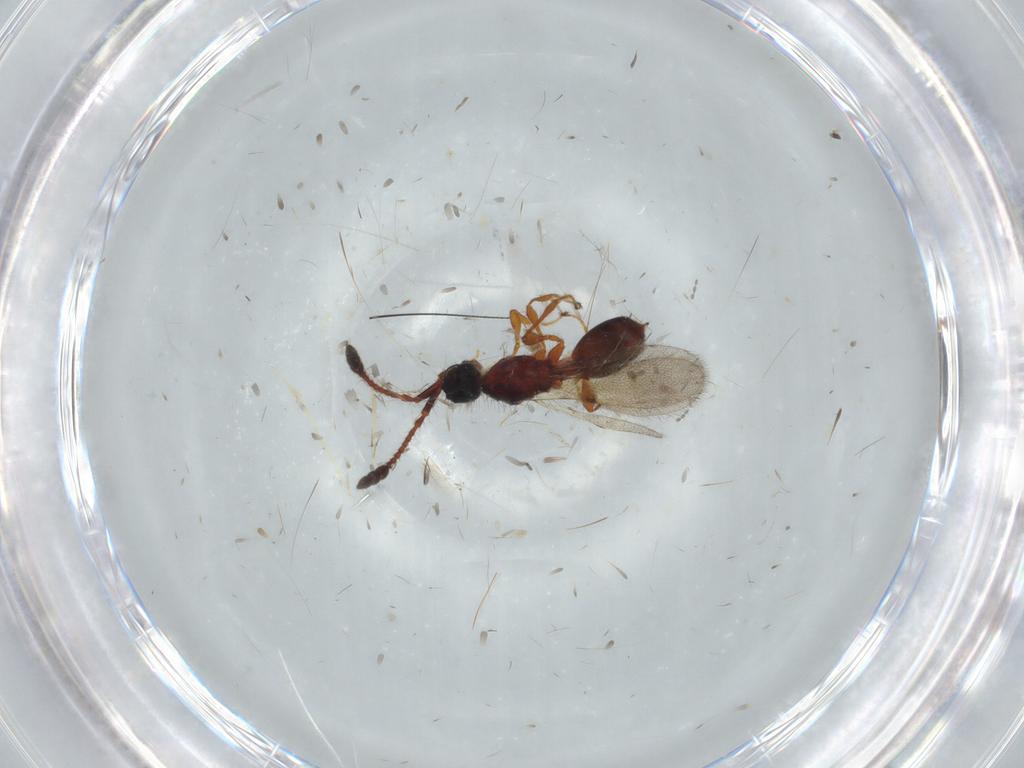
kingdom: Animalia
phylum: Arthropoda
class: Insecta
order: Hymenoptera
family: Diapriidae
